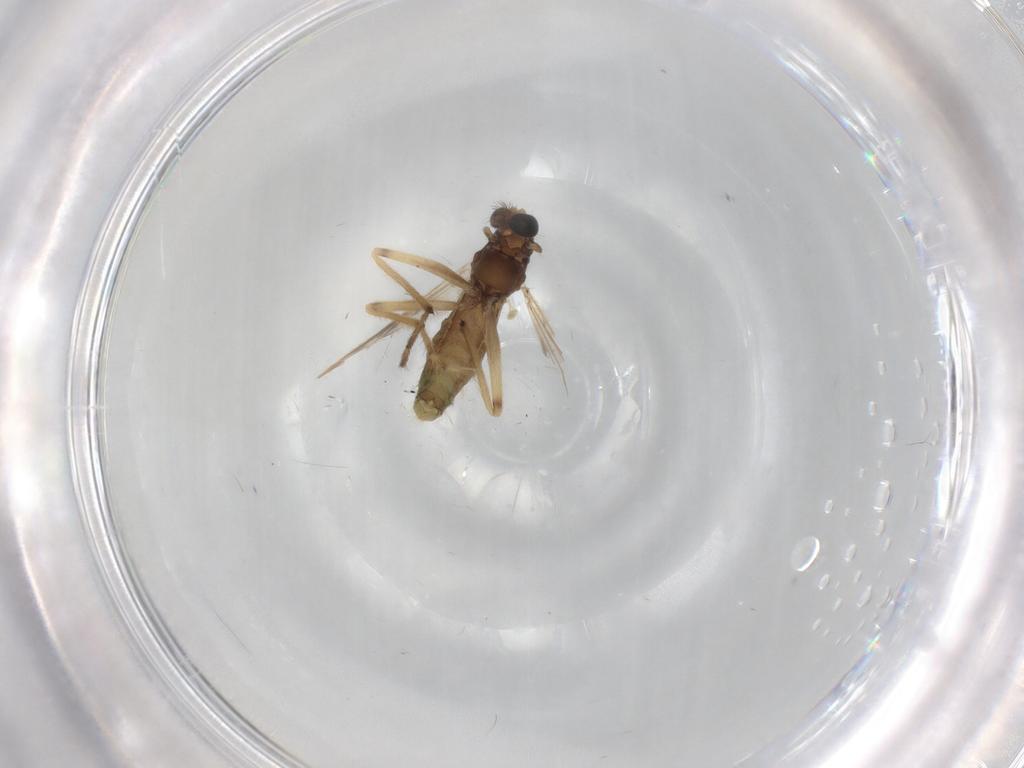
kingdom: Animalia
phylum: Arthropoda
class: Insecta
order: Diptera
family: Chironomidae
